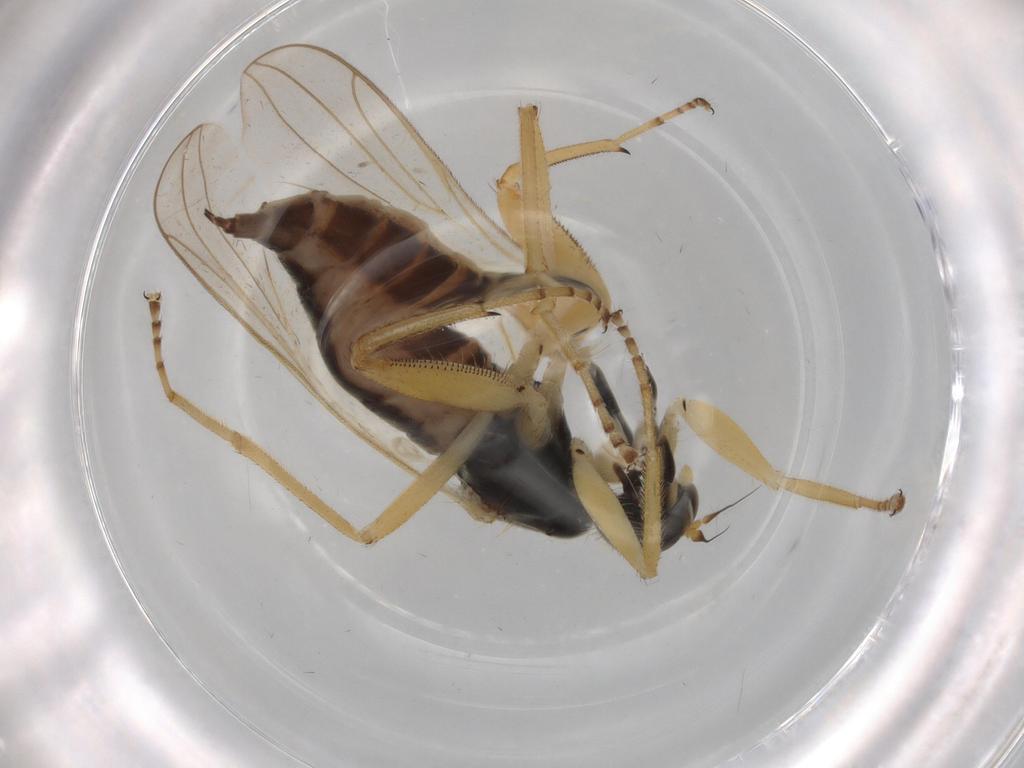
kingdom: Animalia
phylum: Arthropoda
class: Insecta
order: Diptera
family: Hybotidae
